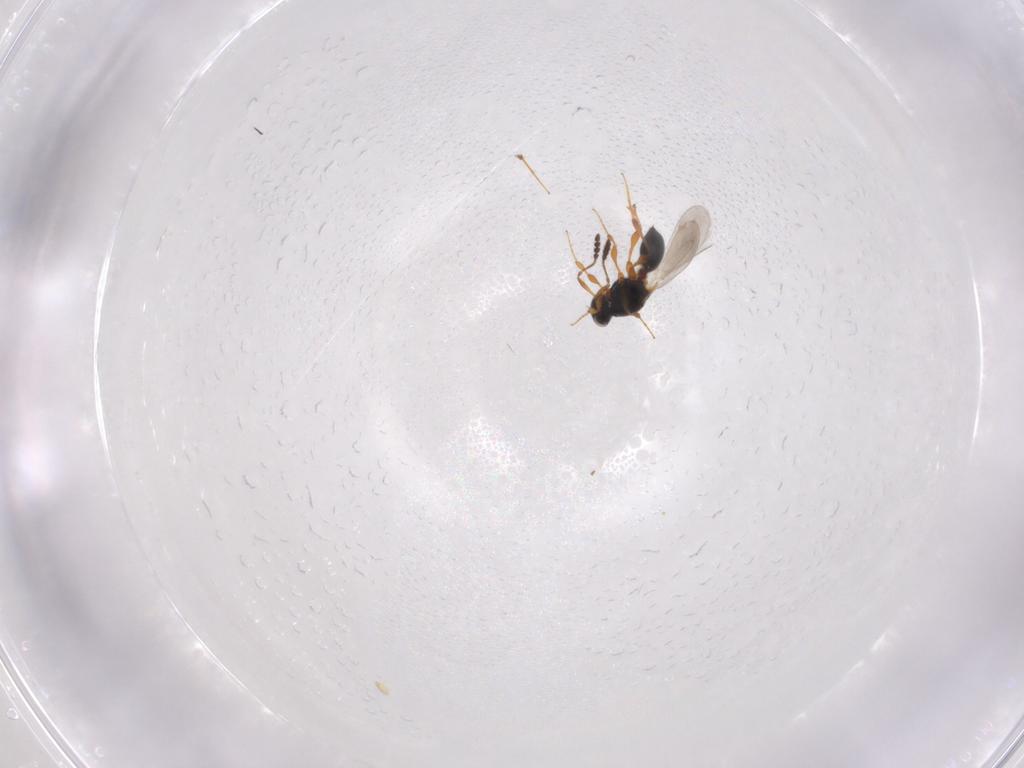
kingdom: Animalia
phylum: Arthropoda
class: Insecta
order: Hymenoptera
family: Platygastridae
